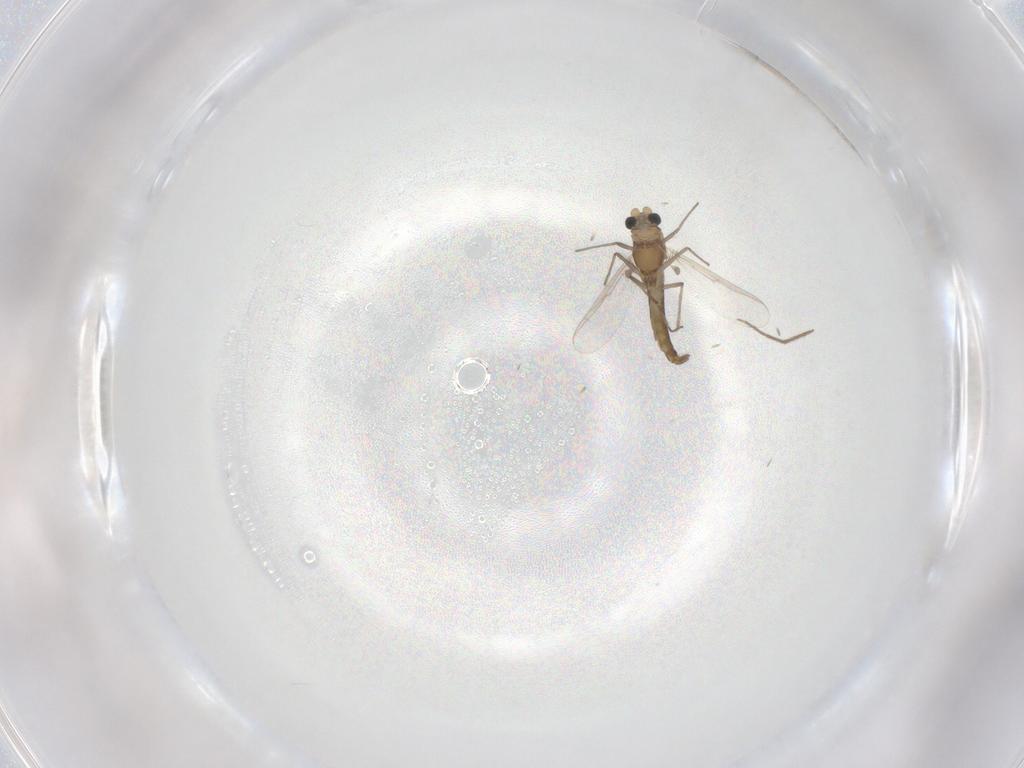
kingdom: Animalia
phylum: Arthropoda
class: Insecta
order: Diptera
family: Chironomidae
